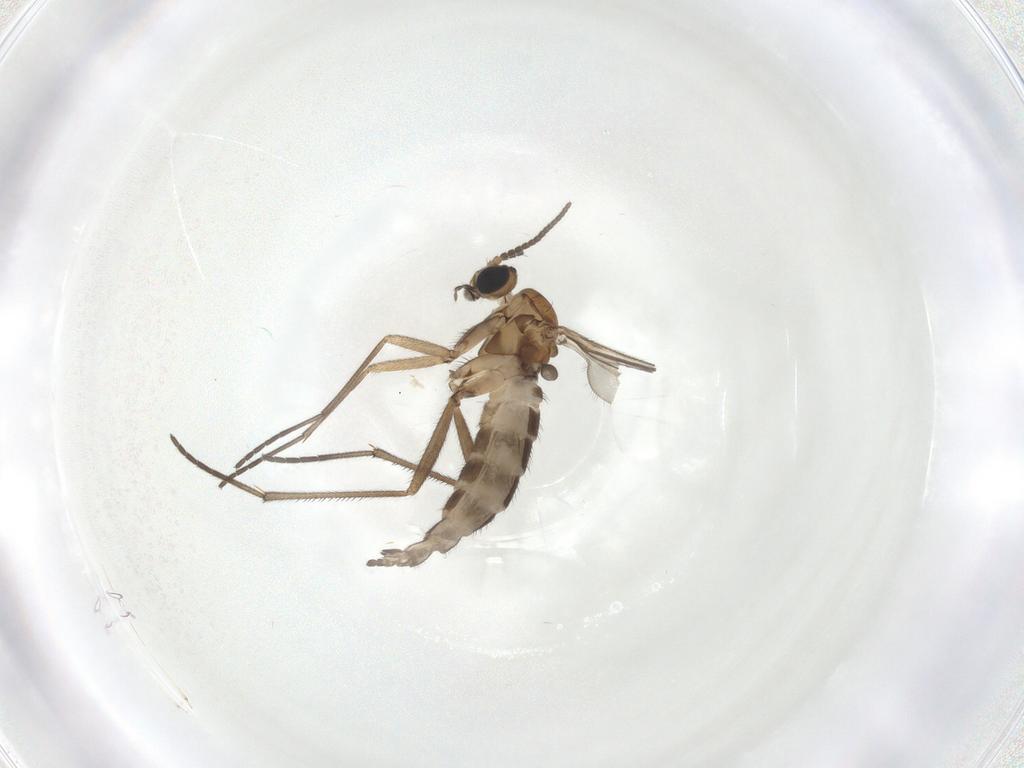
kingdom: Animalia
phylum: Arthropoda
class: Insecta
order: Diptera
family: Sciaridae
